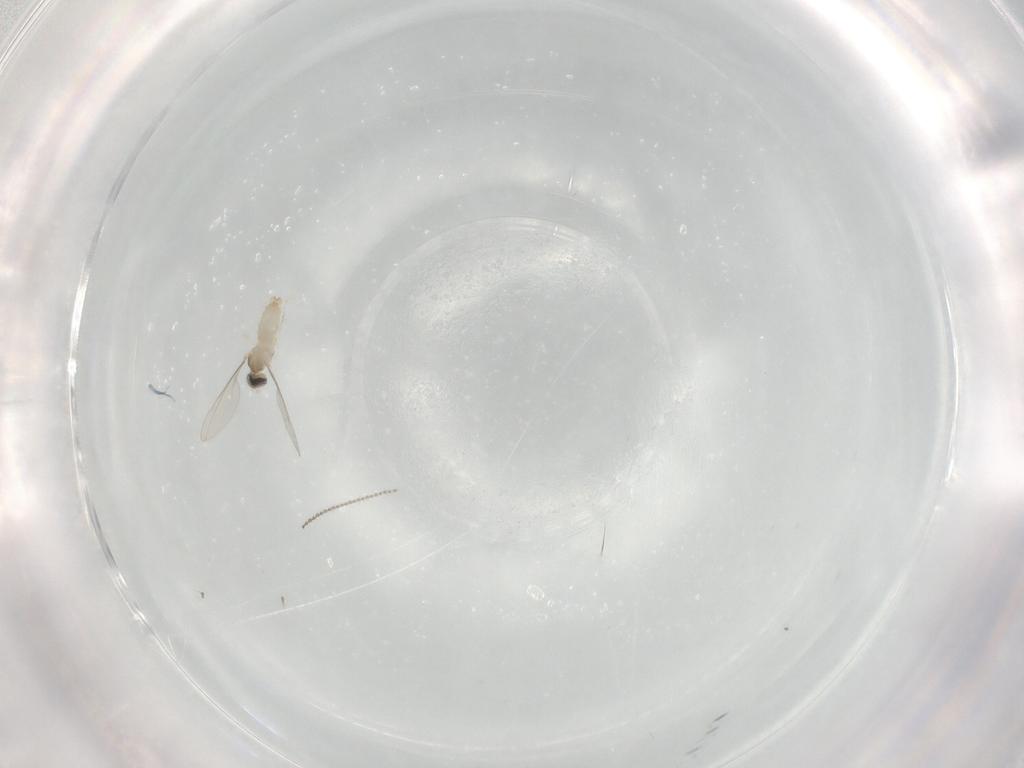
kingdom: Animalia
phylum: Arthropoda
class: Insecta
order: Diptera
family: Cecidomyiidae
